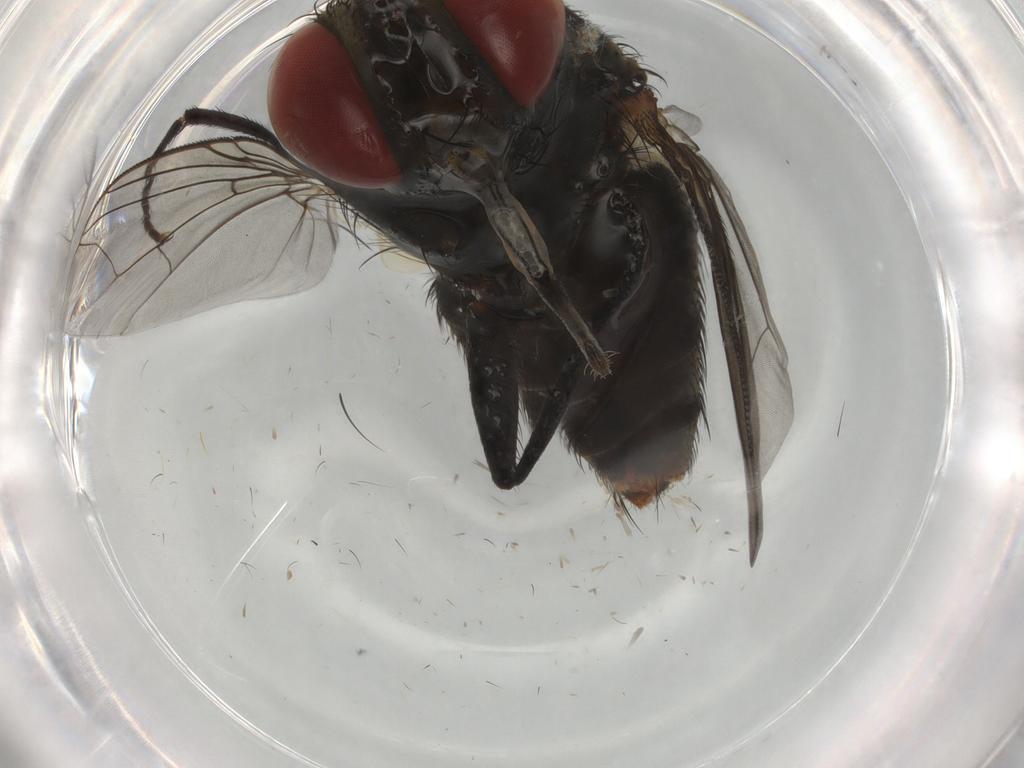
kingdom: Animalia
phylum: Arthropoda
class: Insecta
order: Diptera
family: Sarcophagidae
